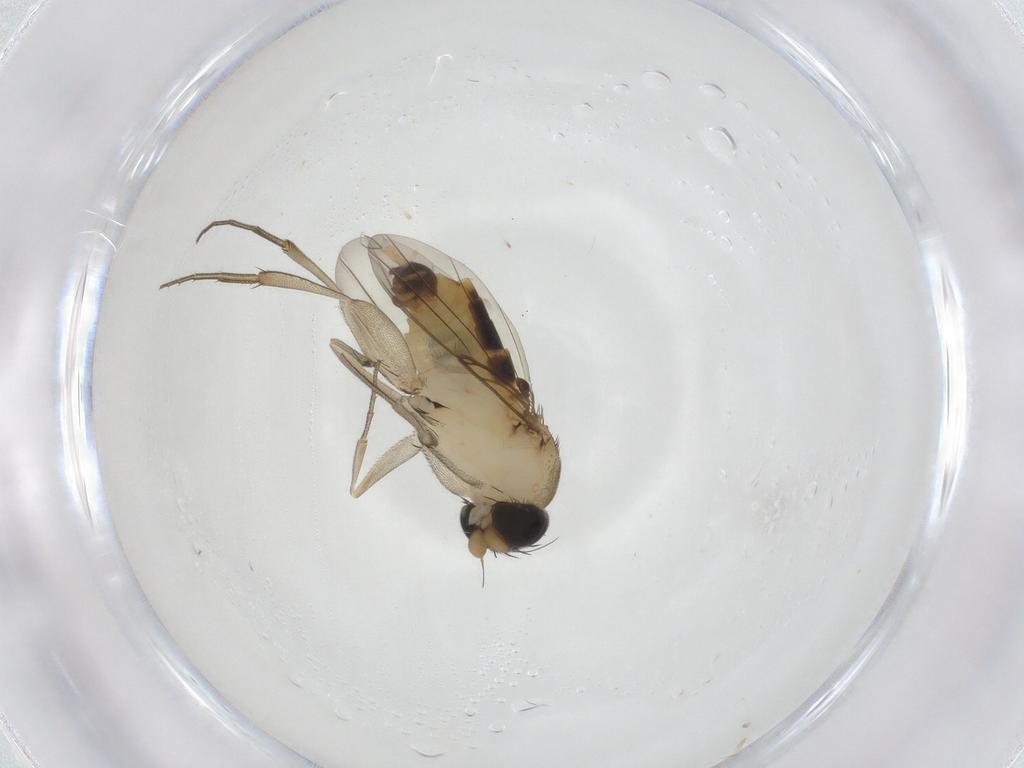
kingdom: Animalia
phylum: Arthropoda
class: Insecta
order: Diptera
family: Phoridae
